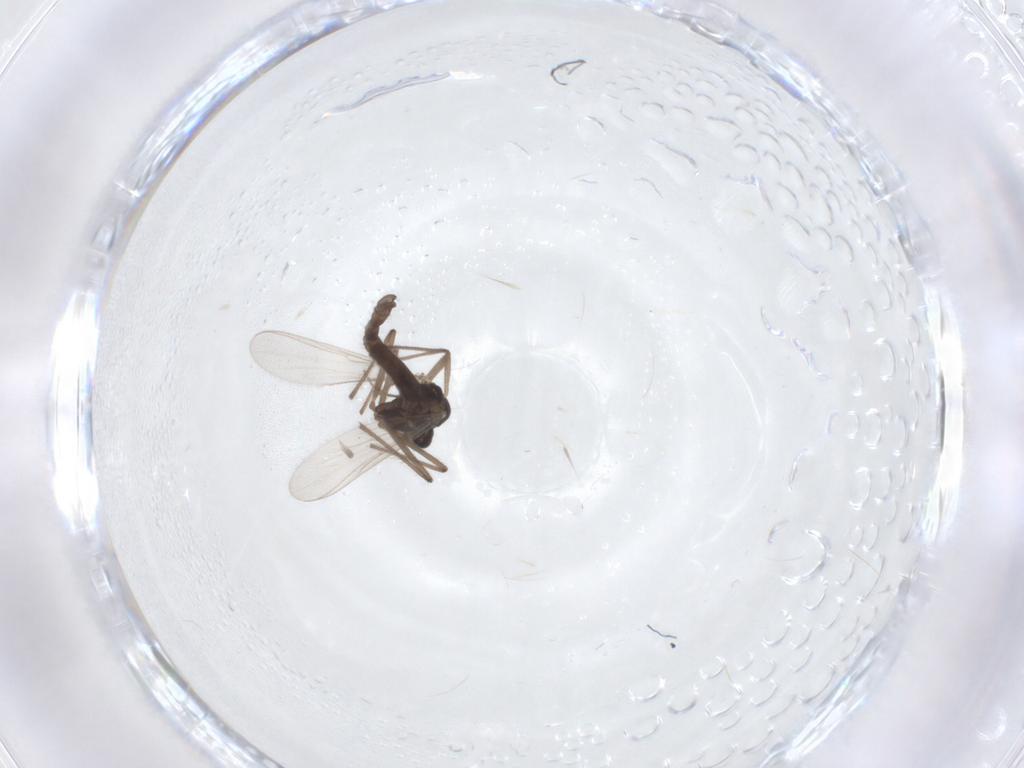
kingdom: Animalia
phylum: Arthropoda
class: Insecta
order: Diptera
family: Chironomidae
